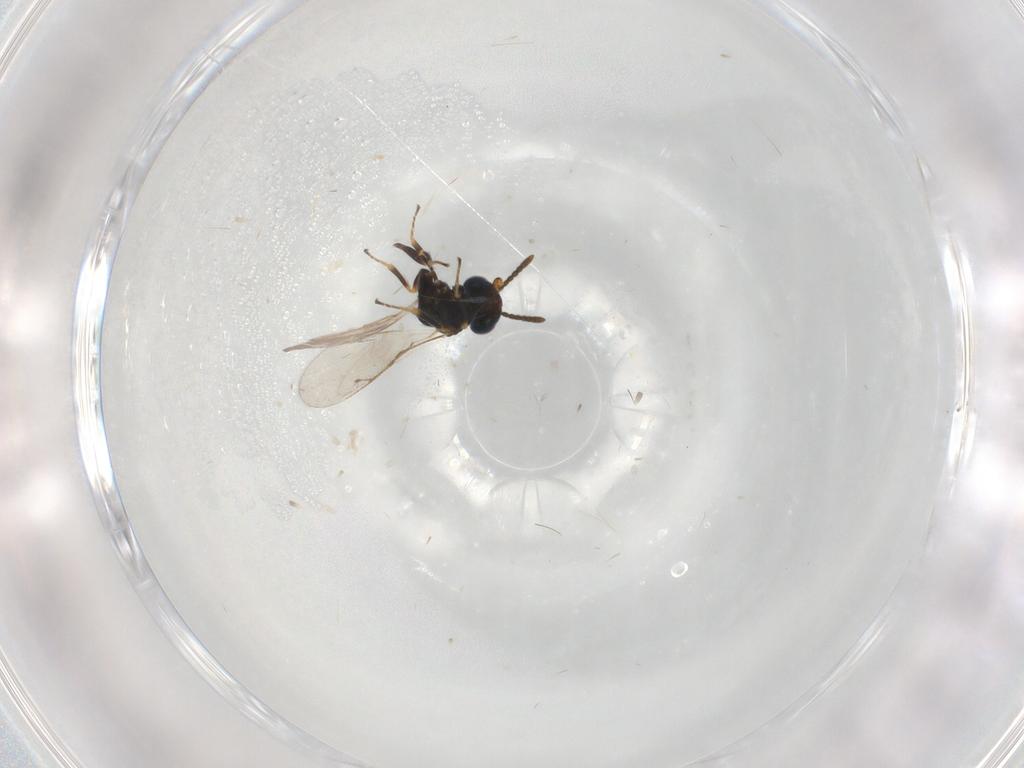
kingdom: Animalia
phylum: Arthropoda
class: Insecta
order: Hymenoptera
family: Pteromalidae
